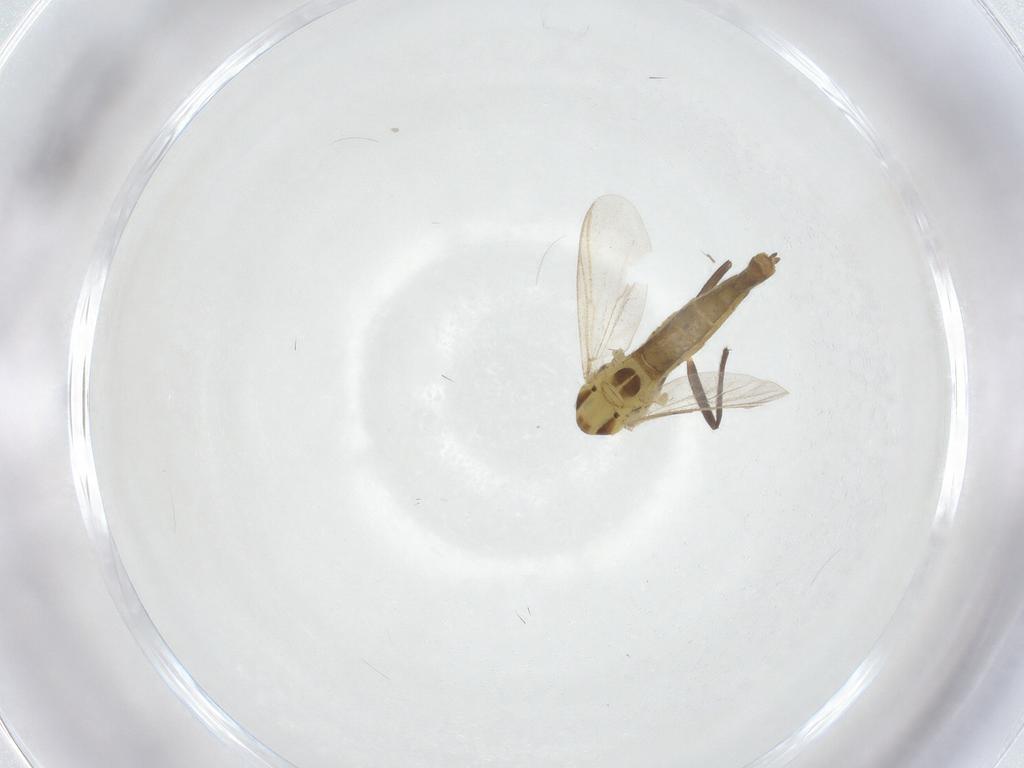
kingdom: Animalia
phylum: Arthropoda
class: Insecta
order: Diptera
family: Chironomidae
